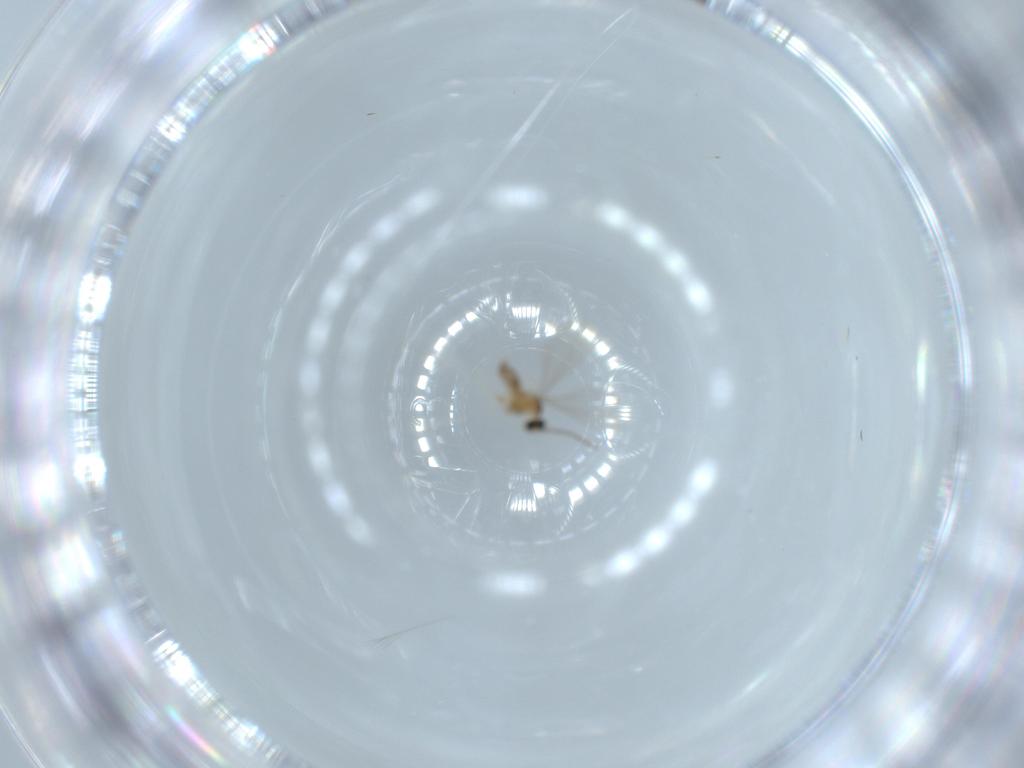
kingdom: Animalia
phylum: Arthropoda
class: Insecta
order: Diptera
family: Cecidomyiidae
